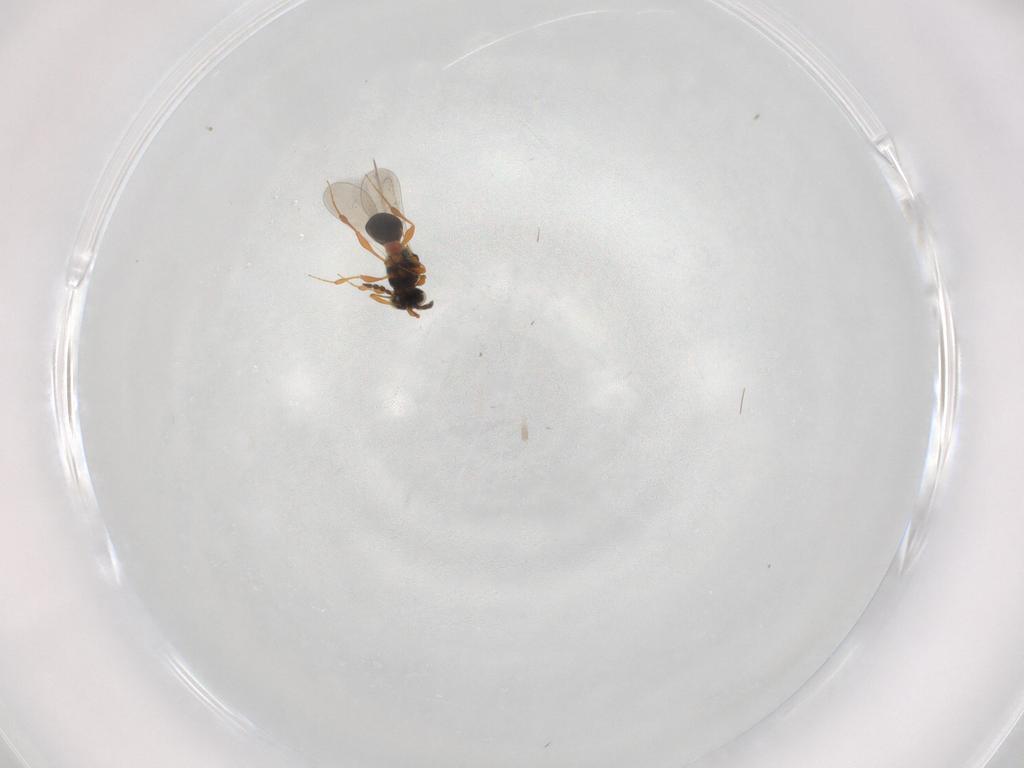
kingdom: Animalia
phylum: Arthropoda
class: Insecta
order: Hymenoptera
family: Platygastridae
